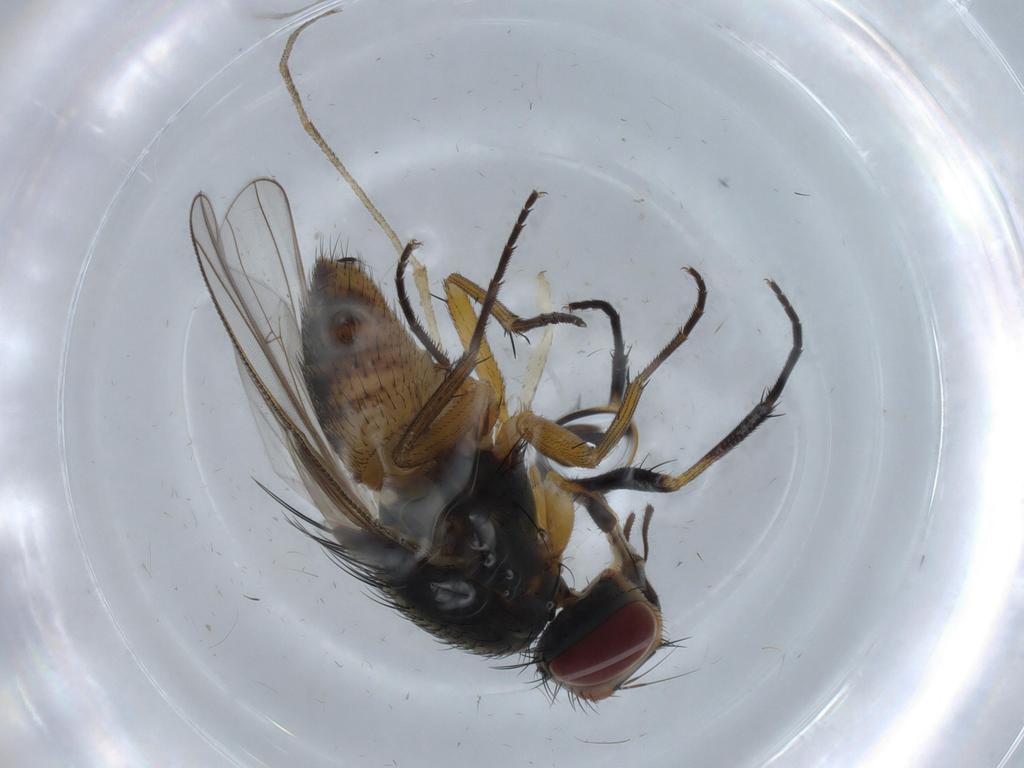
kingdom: Animalia
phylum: Arthropoda
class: Insecta
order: Diptera
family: Muscidae
